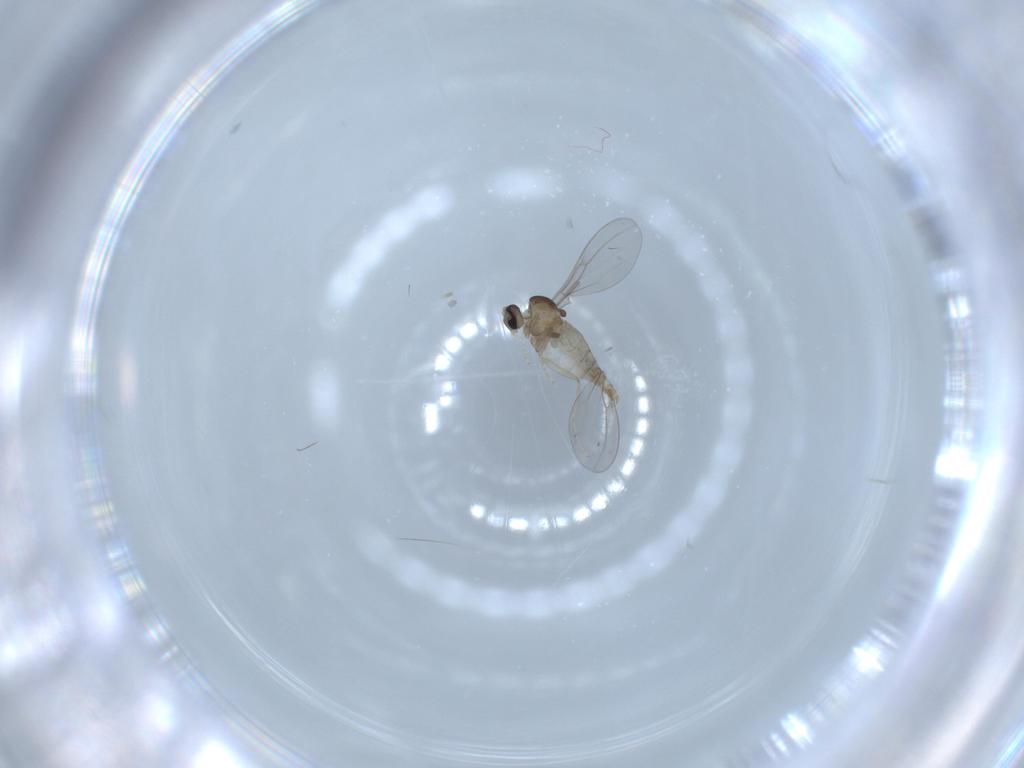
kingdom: Animalia
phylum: Arthropoda
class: Insecta
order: Diptera
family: Cecidomyiidae
